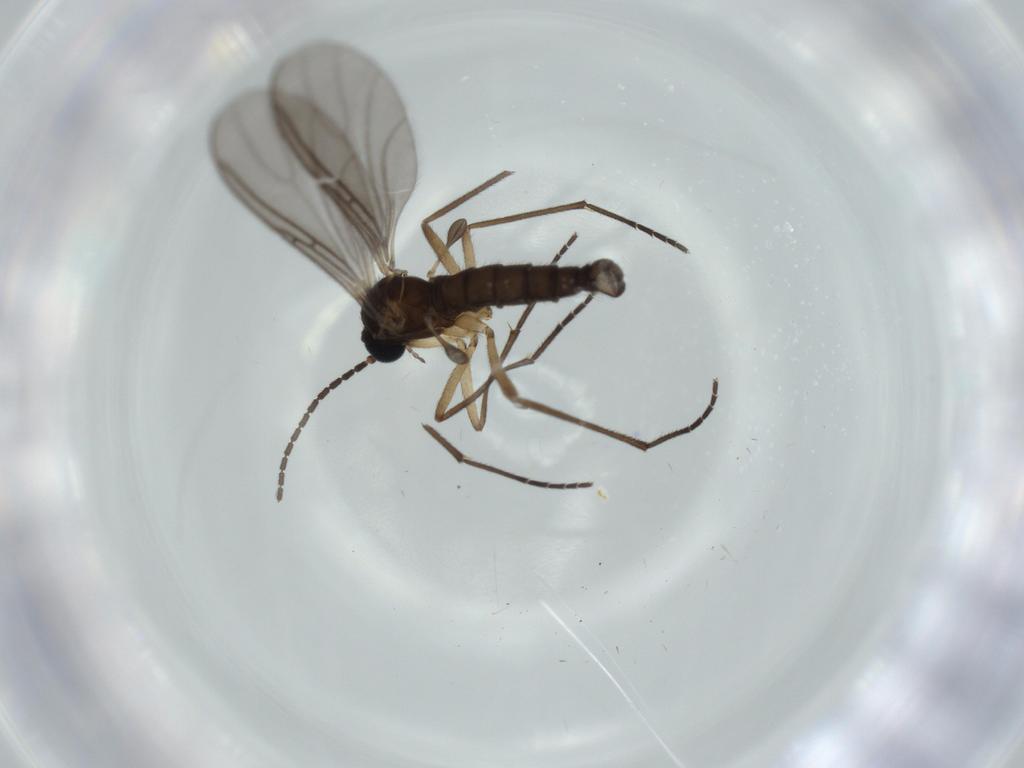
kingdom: Animalia
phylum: Arthropoda
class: Insecta
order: Diptera
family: Sciaridae
